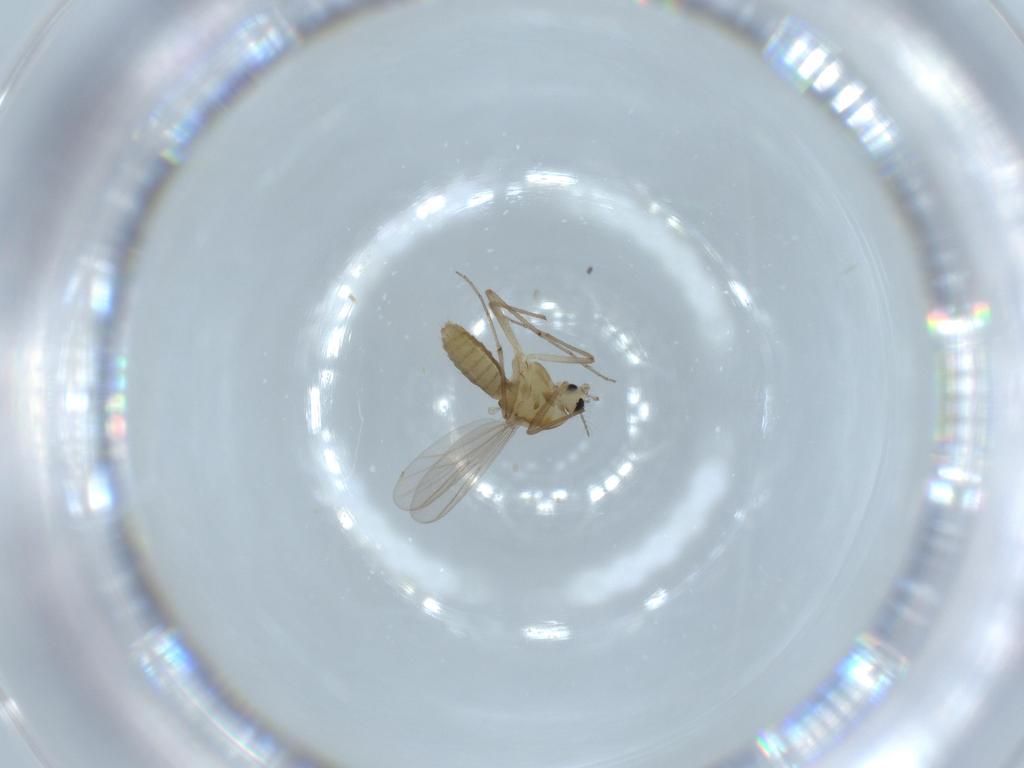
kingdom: Animalia
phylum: Arthropoda
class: Insecta
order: Diptera
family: Chironomidae
